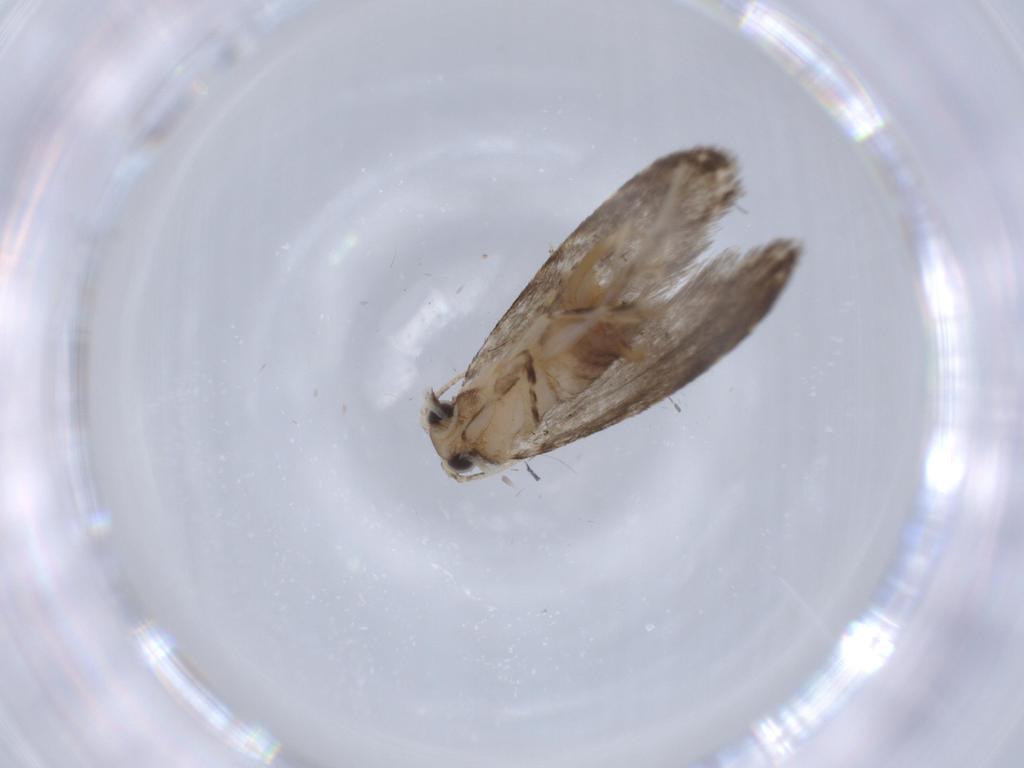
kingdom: Animalia
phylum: Arthropoda
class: Insecta
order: Lepidoptera
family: Tineidae
